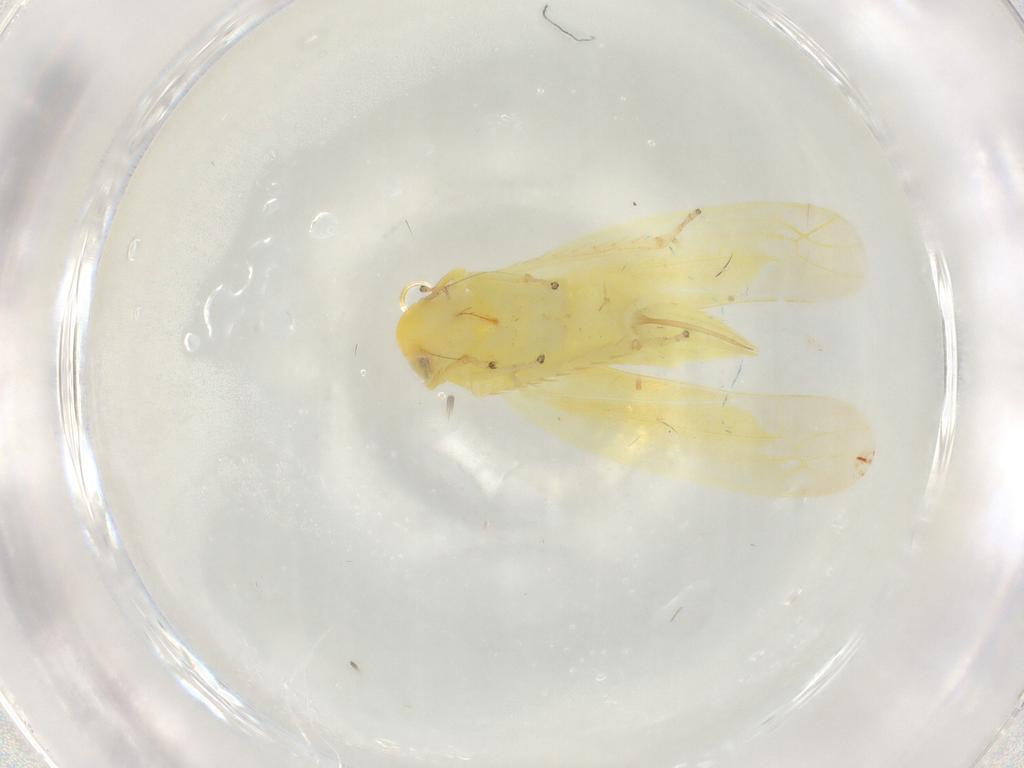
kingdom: Animalia
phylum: Arthropoda
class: Insecta
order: Hemiptera
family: Cicadellidae
